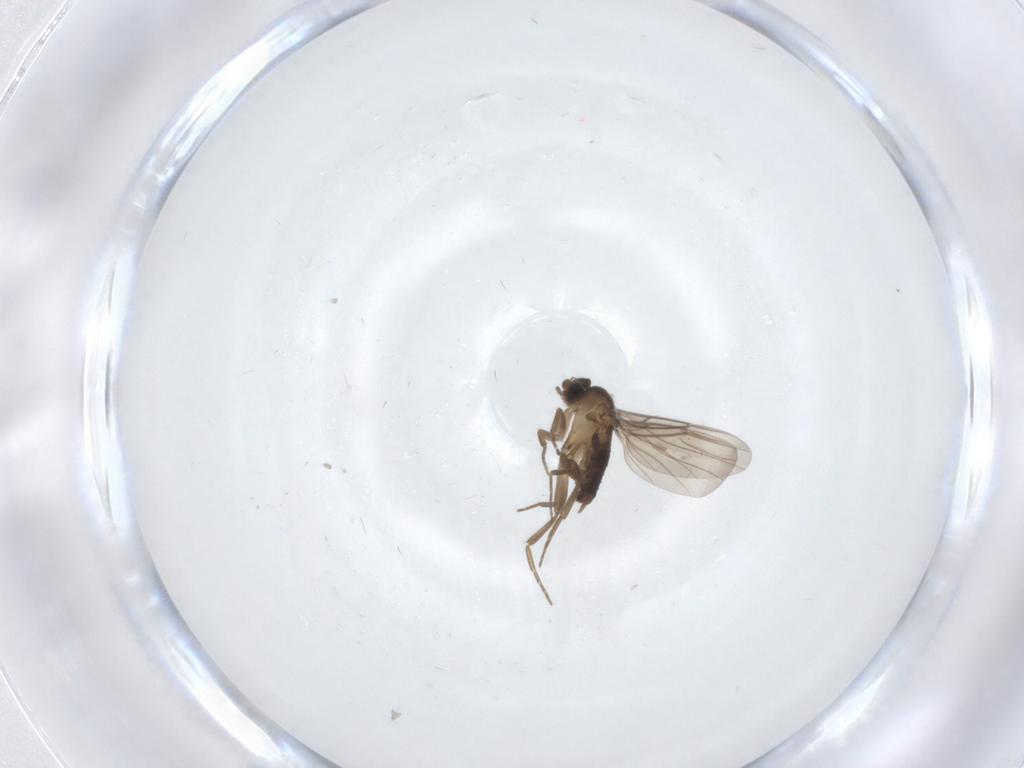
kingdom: Animalia
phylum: Arthropoda
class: Insecta
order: Diptera
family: Phoridae
